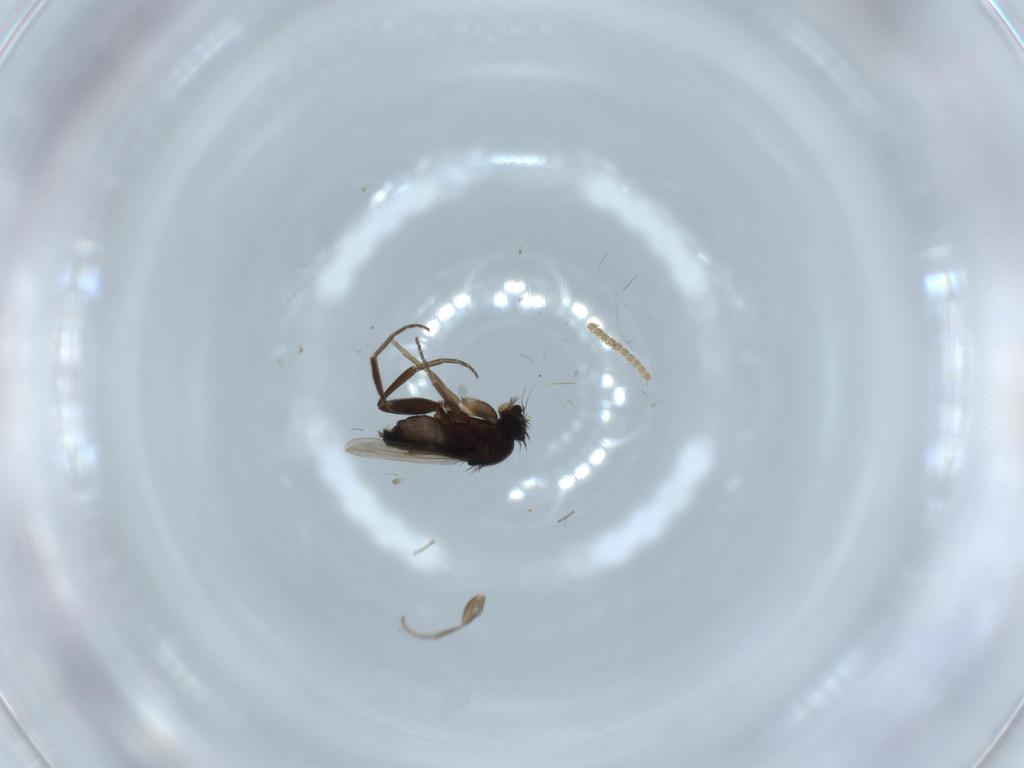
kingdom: Animalia
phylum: Arthropoda
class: Insecta
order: Diptera
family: Phoridae
